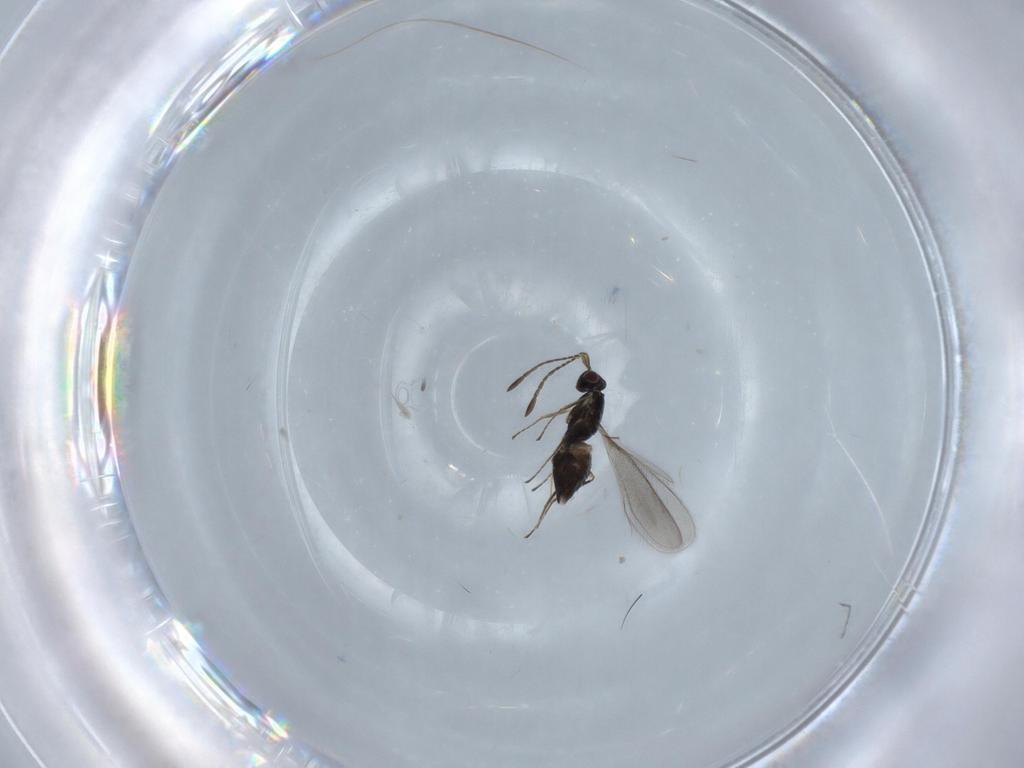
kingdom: Animalia
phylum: Arthropoda
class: Insecta
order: Hymenoptera
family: Mymaridae
